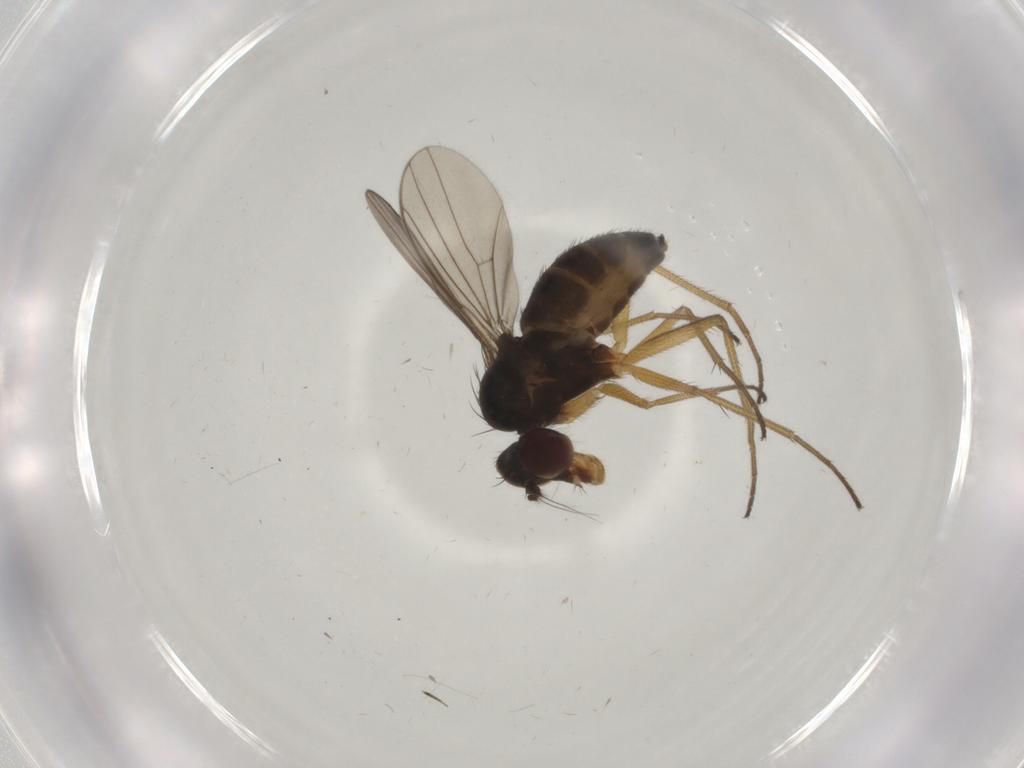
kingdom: Animalia
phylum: Arthropoda
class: Insecta
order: Diptera
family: Dolichopodidae
